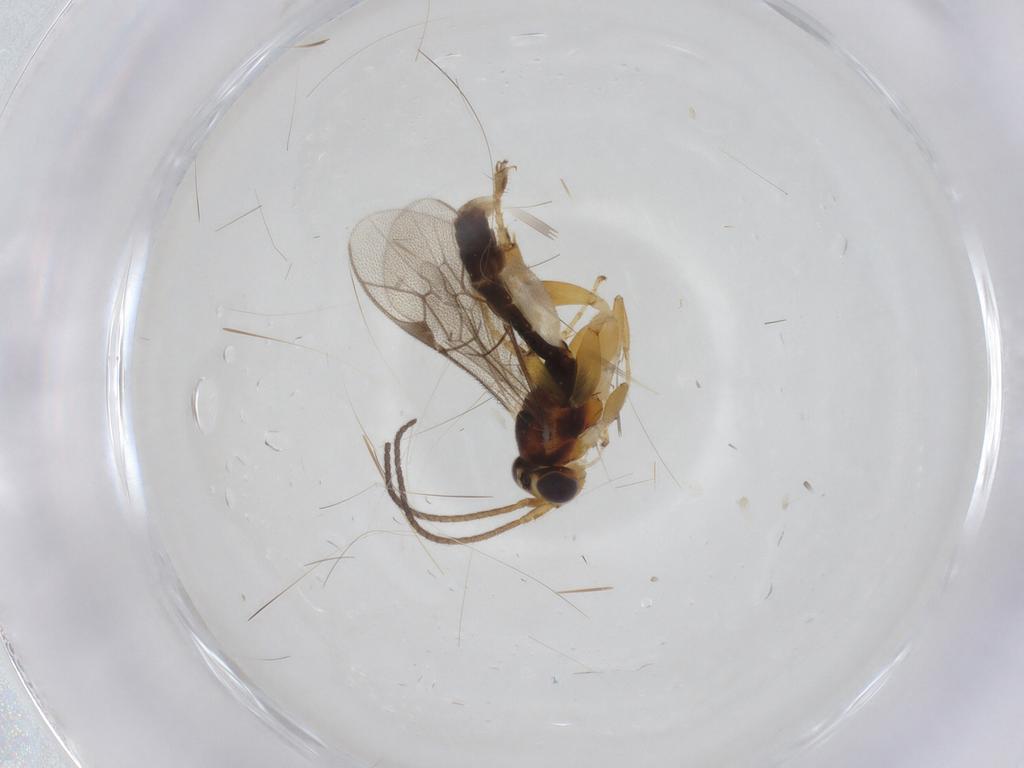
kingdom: Animalia
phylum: Arthropoda
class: Insecta
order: Hymenoptera
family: Ichneumonidae
